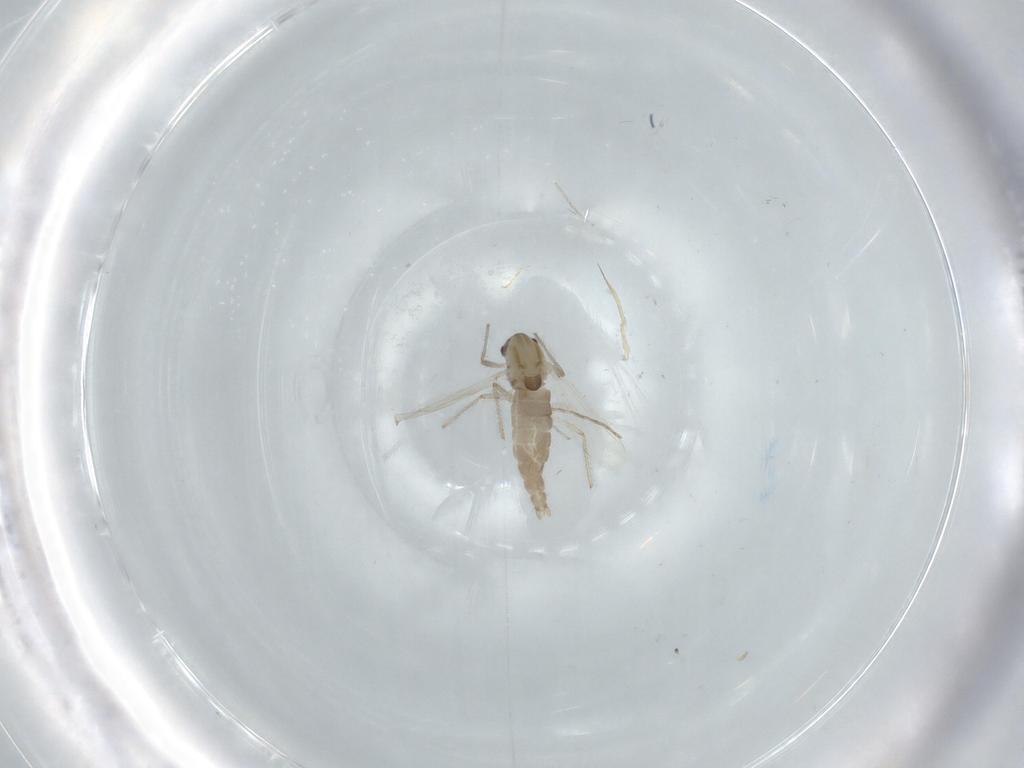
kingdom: Animalia
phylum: Arthropoda
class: Insecta
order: Diptera
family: Chironomidae
